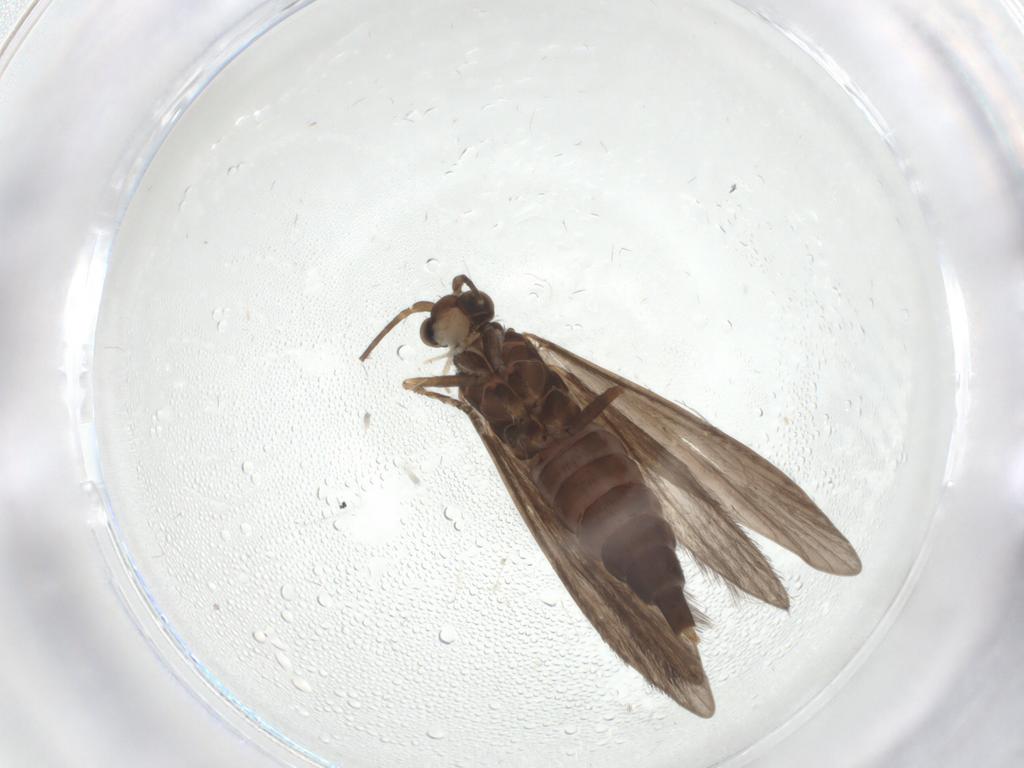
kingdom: Animalia
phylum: Arthropoda
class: Insecta
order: Trichoptera
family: Xiphocentronidae
